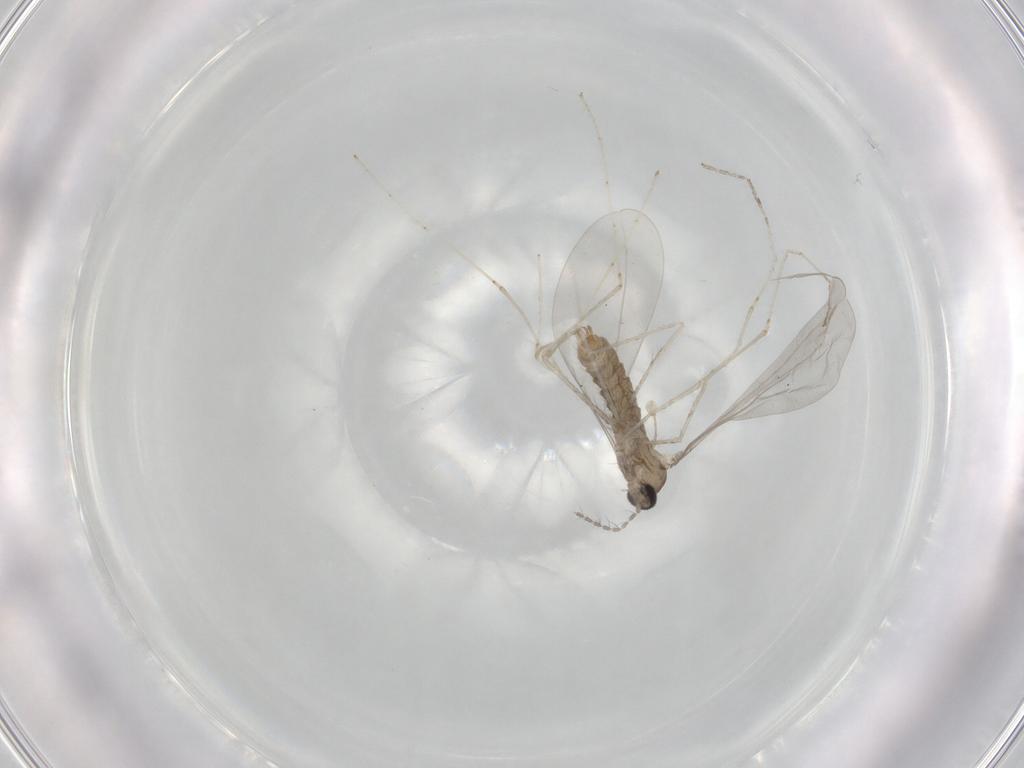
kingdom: Animalia
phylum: Arthropoda
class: Insecta
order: Diptera
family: Cecidomyiidae
